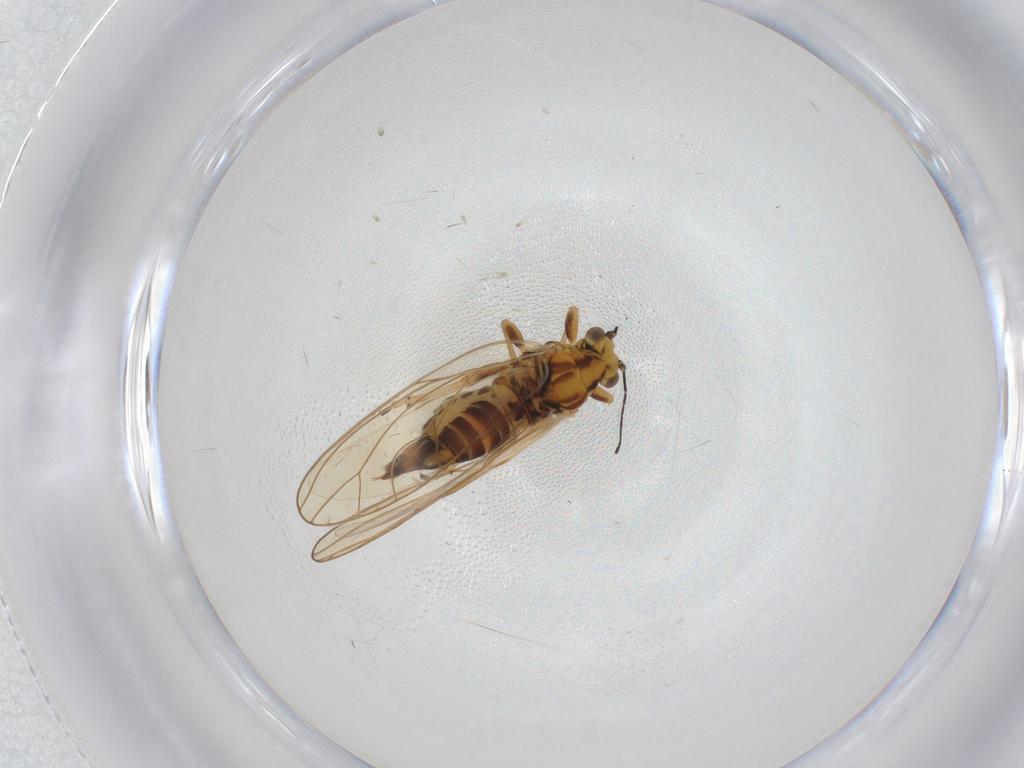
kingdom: Animalia
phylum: Arthropoda
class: Insecta
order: Hemiptera
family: Triozidae
